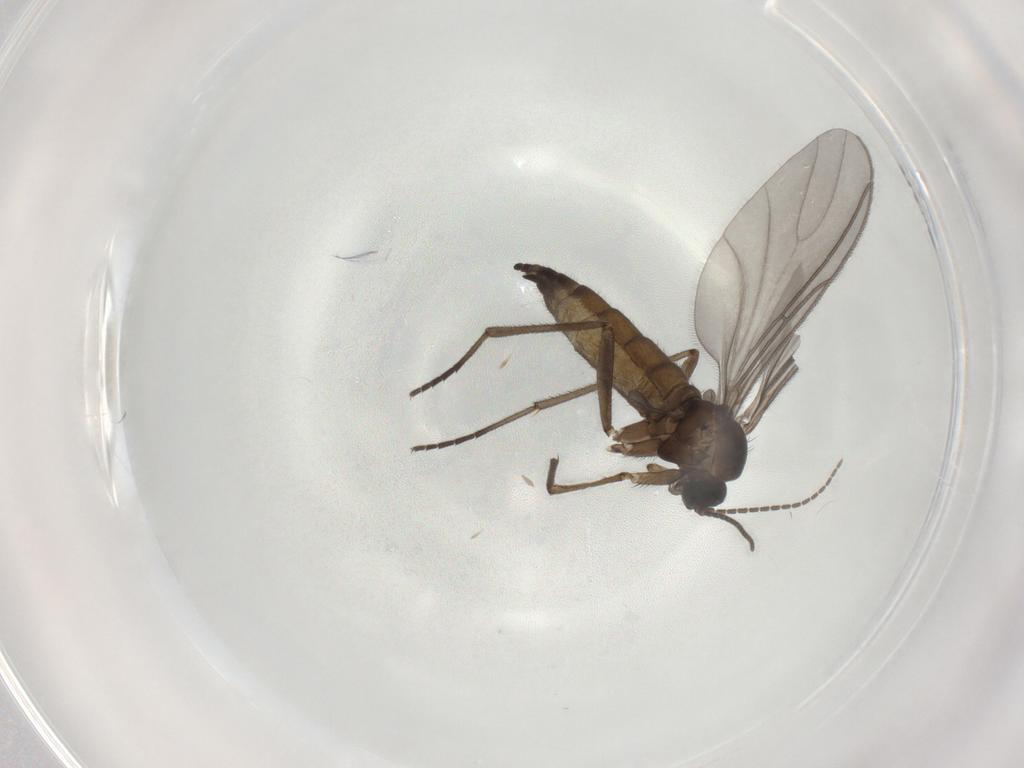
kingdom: Animalia
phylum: Arthropoda
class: Insecta
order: Diptera
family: Sciaridae
